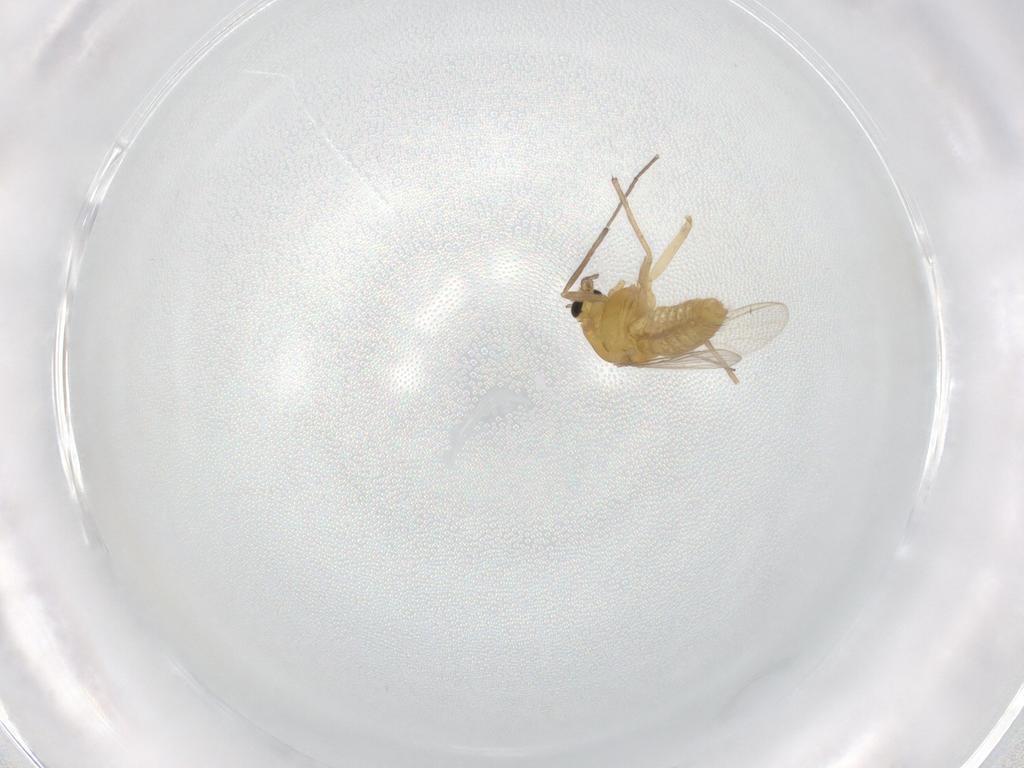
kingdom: Animalia
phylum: Arthropoda
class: Insecta
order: Diptera
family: Chironomidae
